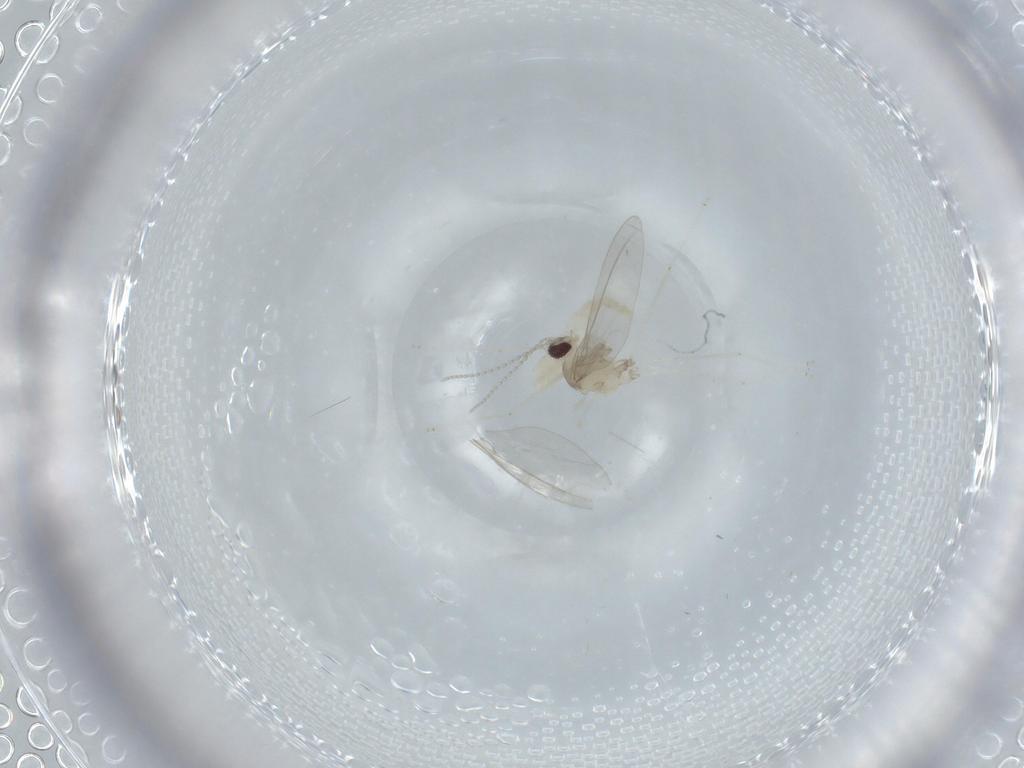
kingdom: Animalia
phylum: Arthropoda
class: Insecta
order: Diptera
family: Cecidomyiidae
